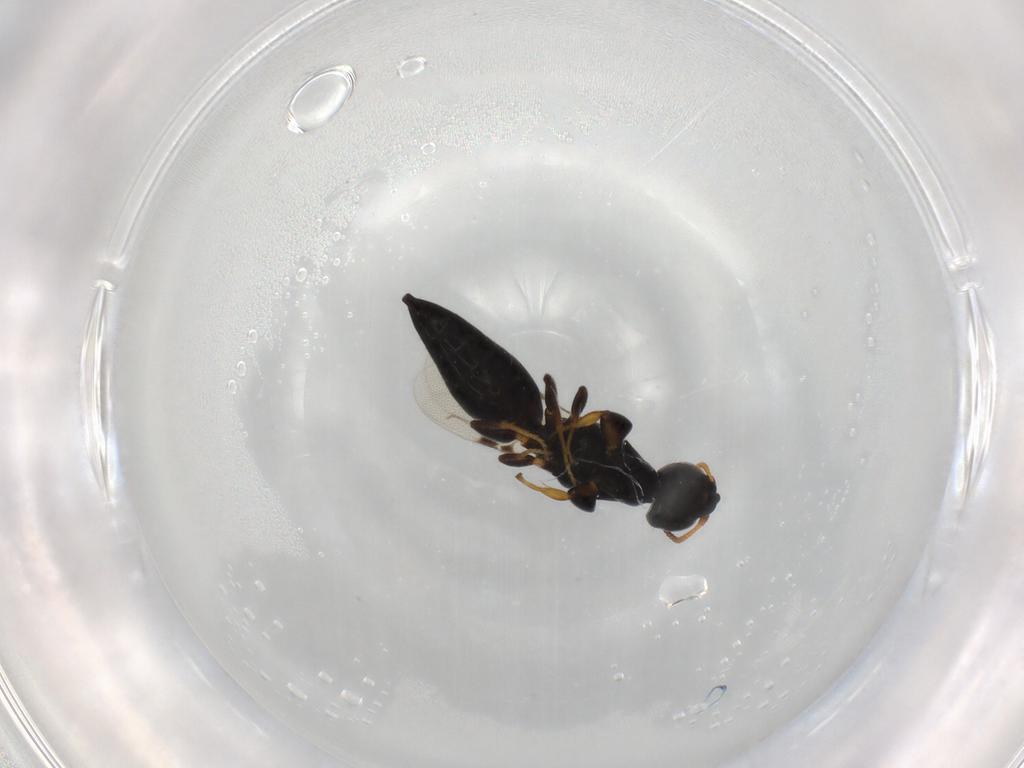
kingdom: Animalia
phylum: Arthropoda
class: Insecta
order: Hymenoptera
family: Bethylidae
